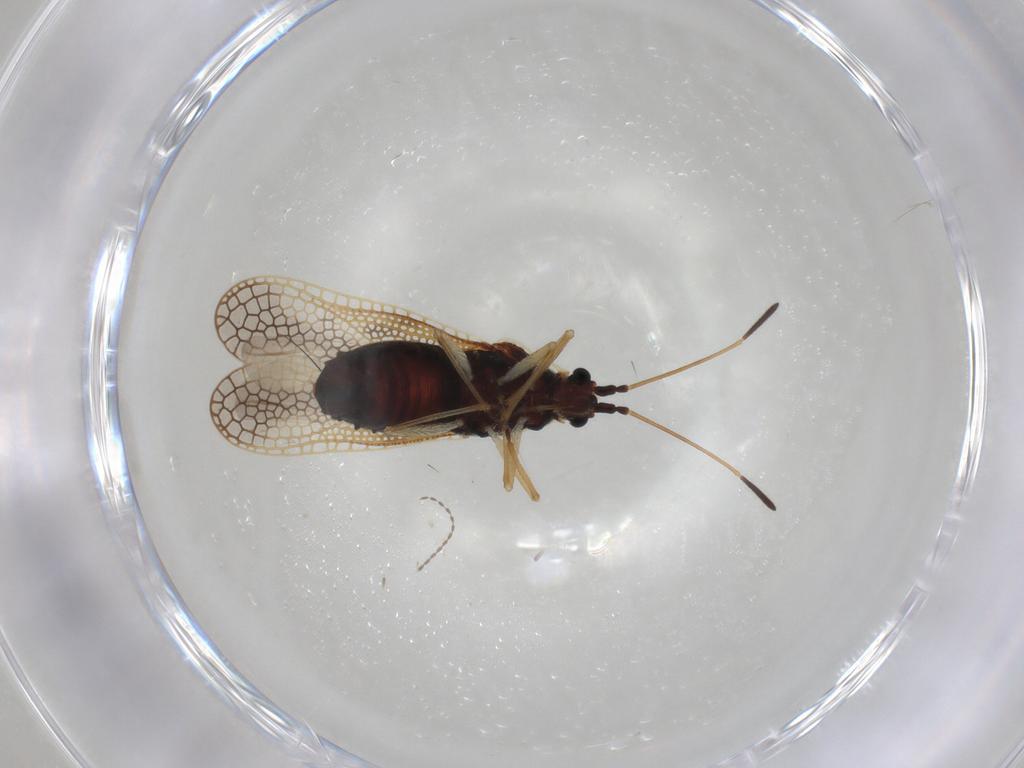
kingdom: Animalia
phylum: Arthropoda
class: Insecta
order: Hemiptera
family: Tingidae
